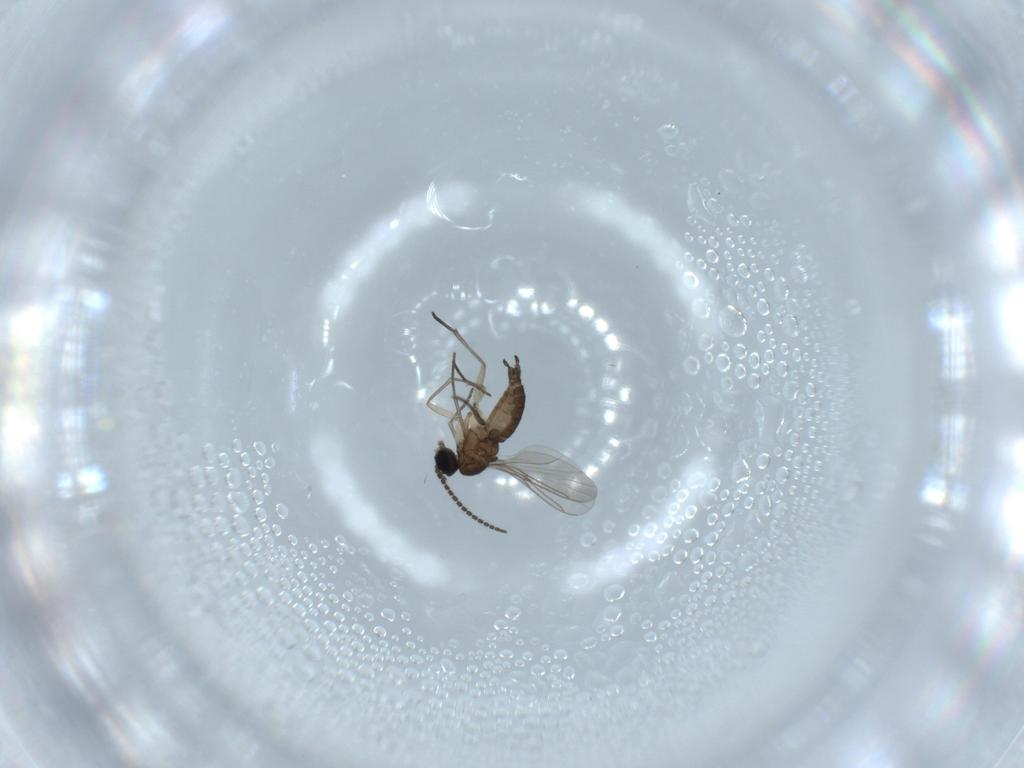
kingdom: Animalia
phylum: Arthropoda
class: Insecta
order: Diptera
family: Sciaridae
